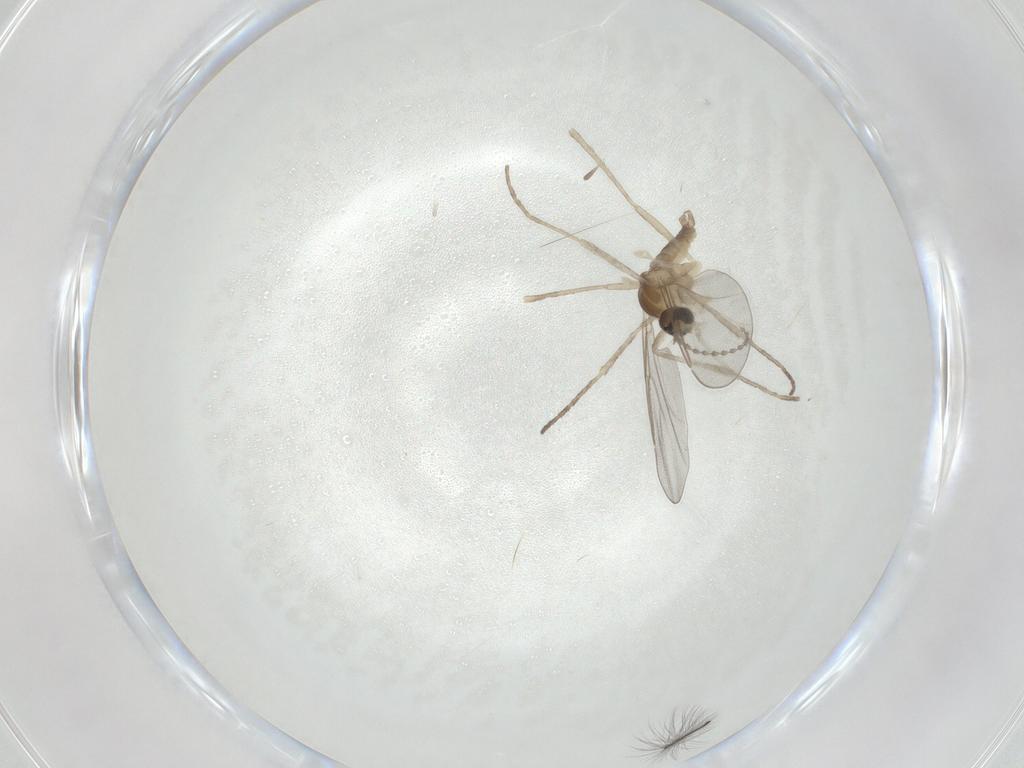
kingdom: Animalia
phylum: Arthropoda
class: Insecta
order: Diptera
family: Cecidomyiidae
